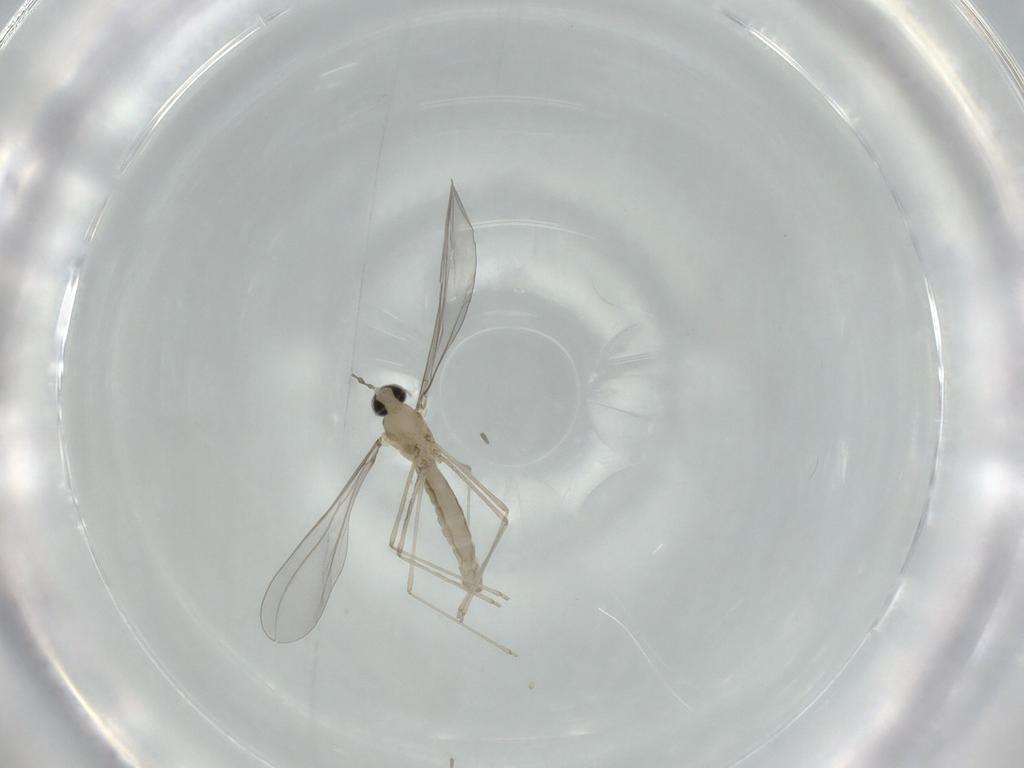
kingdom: Animalia
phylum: Arthropoda
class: Insecta
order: Diptera
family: Cecidomyiidae
